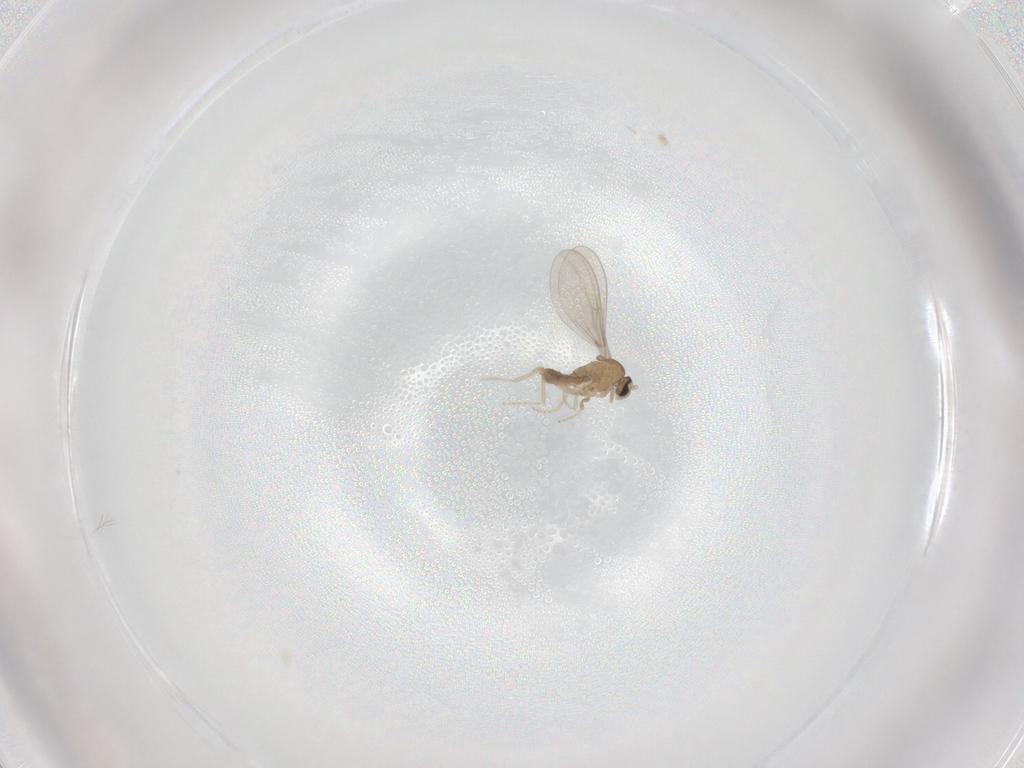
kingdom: Animalia
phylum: Arthropoda
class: Insecta
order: Diptera
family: Cecidomyiidae
